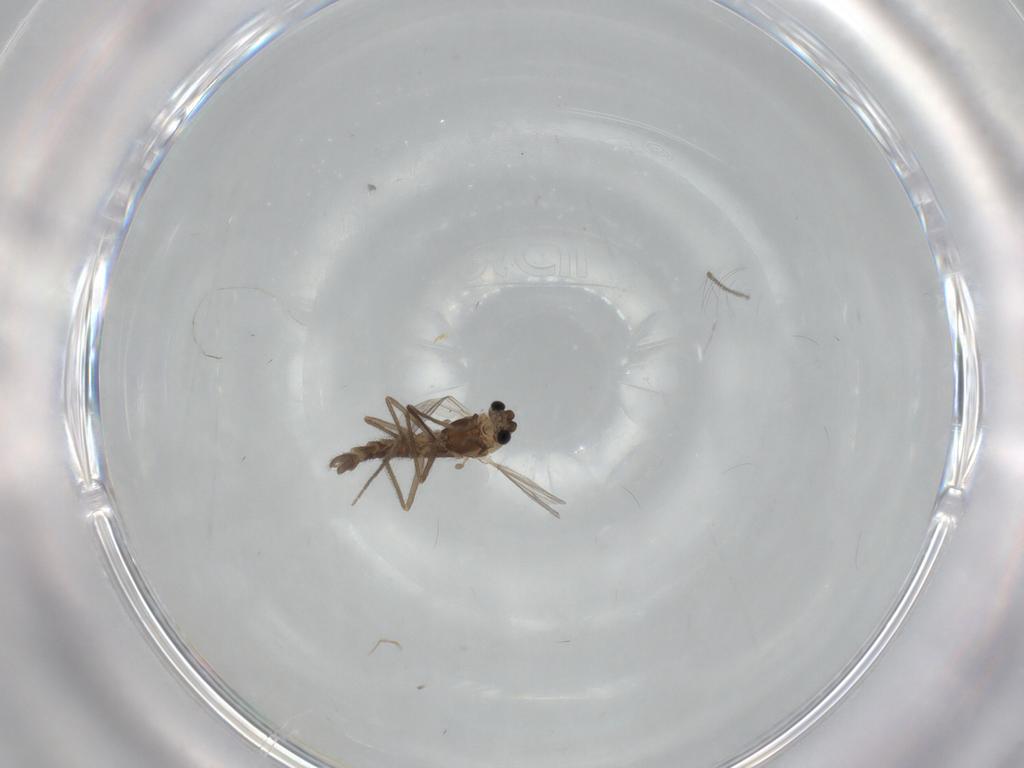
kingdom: Animalia
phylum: Arthropoda
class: Insecta
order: Diptera
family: Chironomidae
